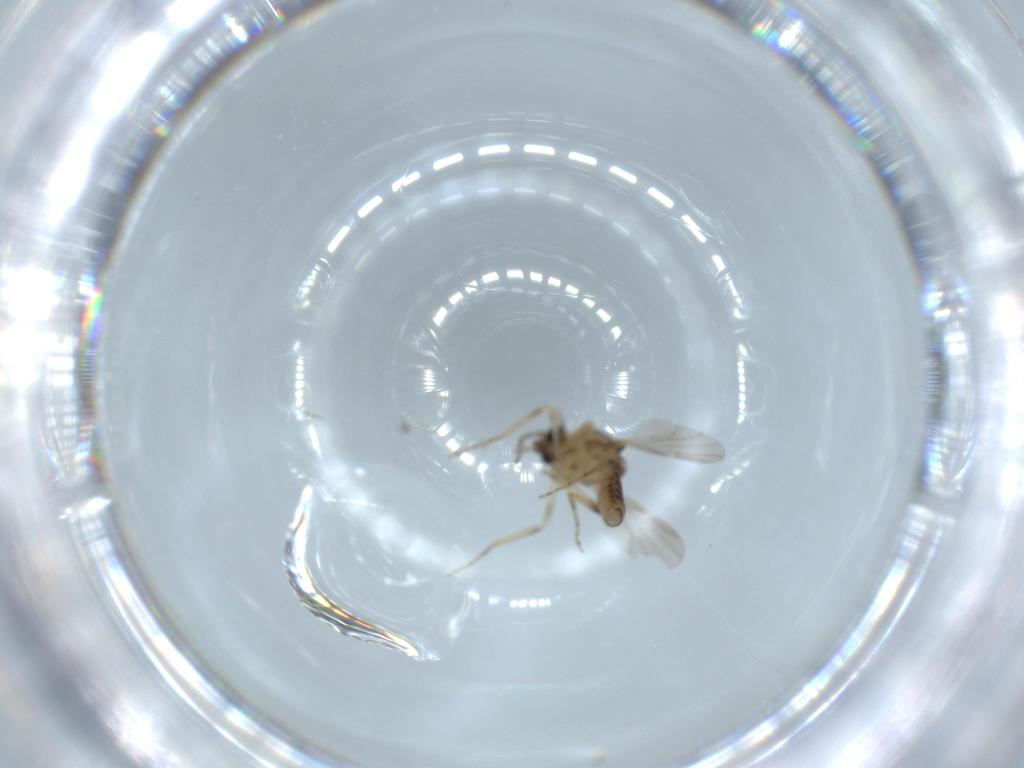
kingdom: Animalia
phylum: Arthropoda
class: Insecta
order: Diptera
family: Ceratopogonidae
